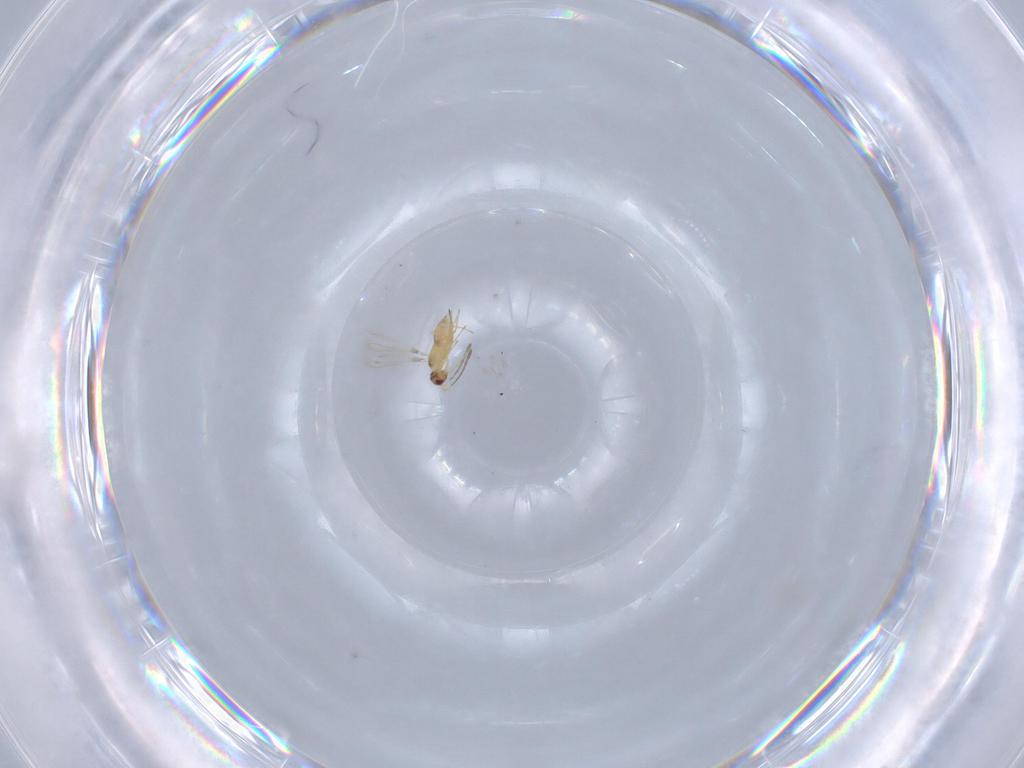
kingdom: Animalia
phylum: Arthropoda
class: Insecta
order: Hymenoptera
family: Mymaridae
